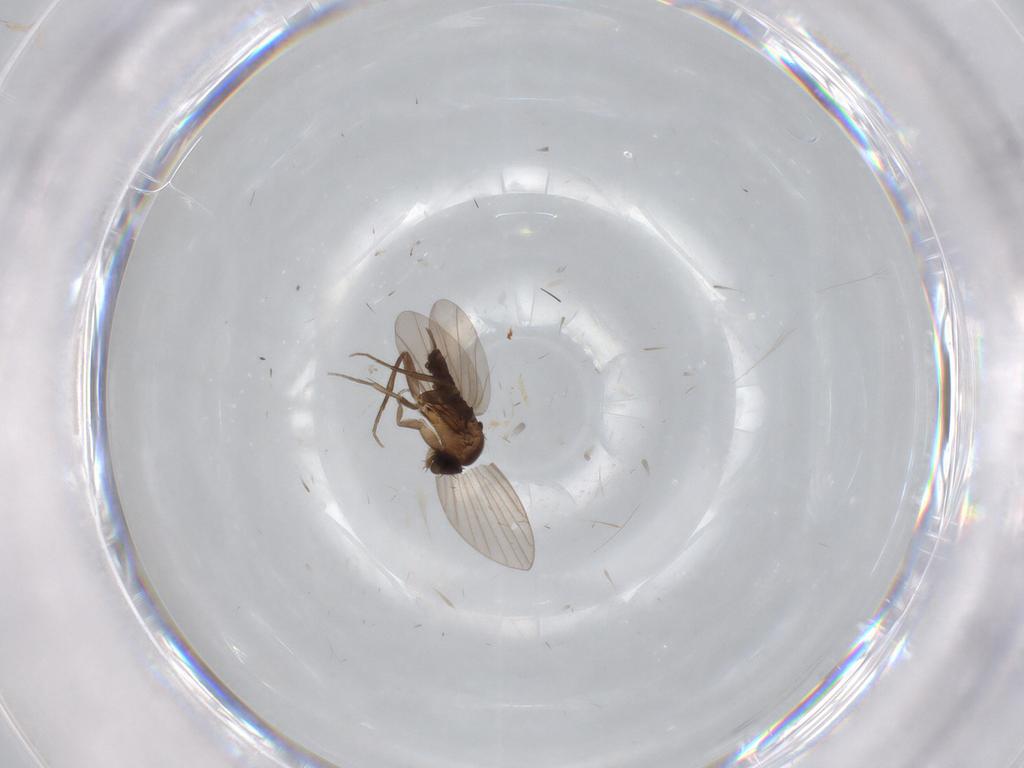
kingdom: Animalia
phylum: Arthropoda
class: Insecta
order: Diptera
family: Phoridae
